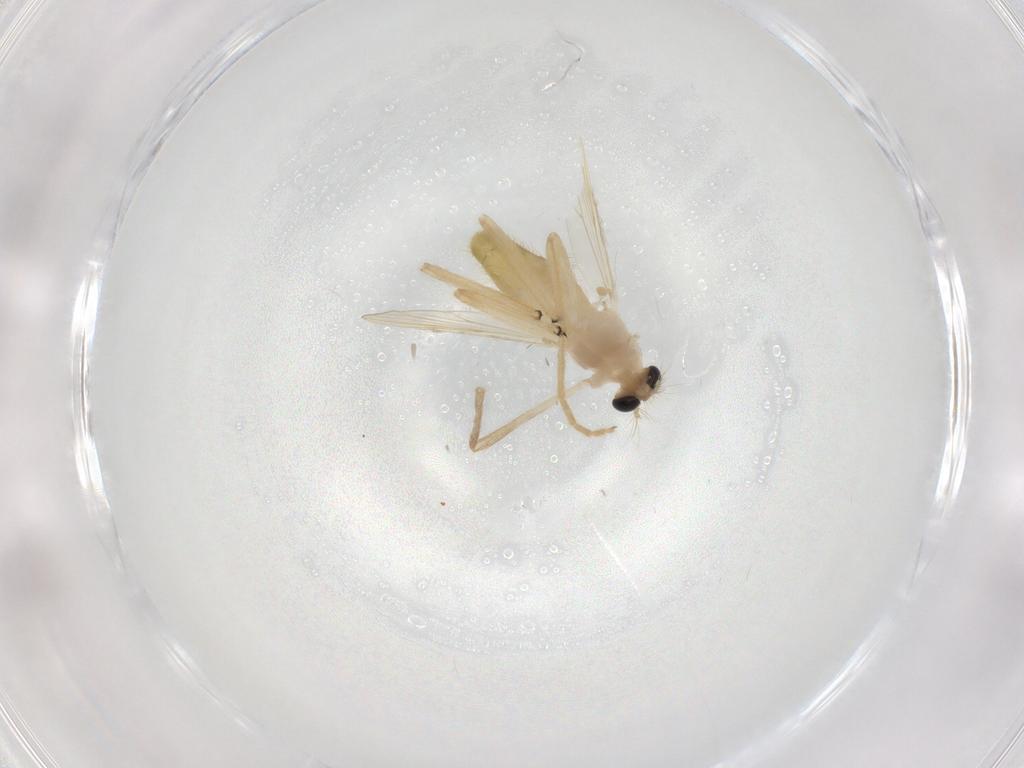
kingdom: Animalia
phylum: Arthropoda
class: Insecta
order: Diptera
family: Chironomidae
